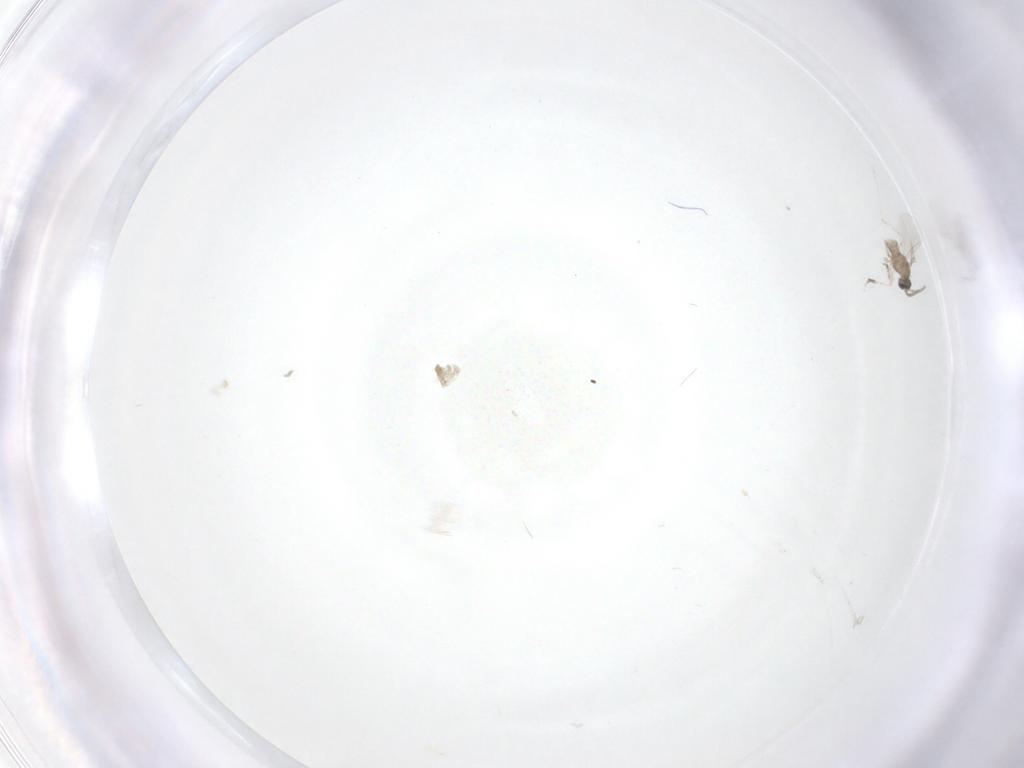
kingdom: Animalia
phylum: Arthropoda
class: Insecta
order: Diptera
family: Cecidomyiidae
